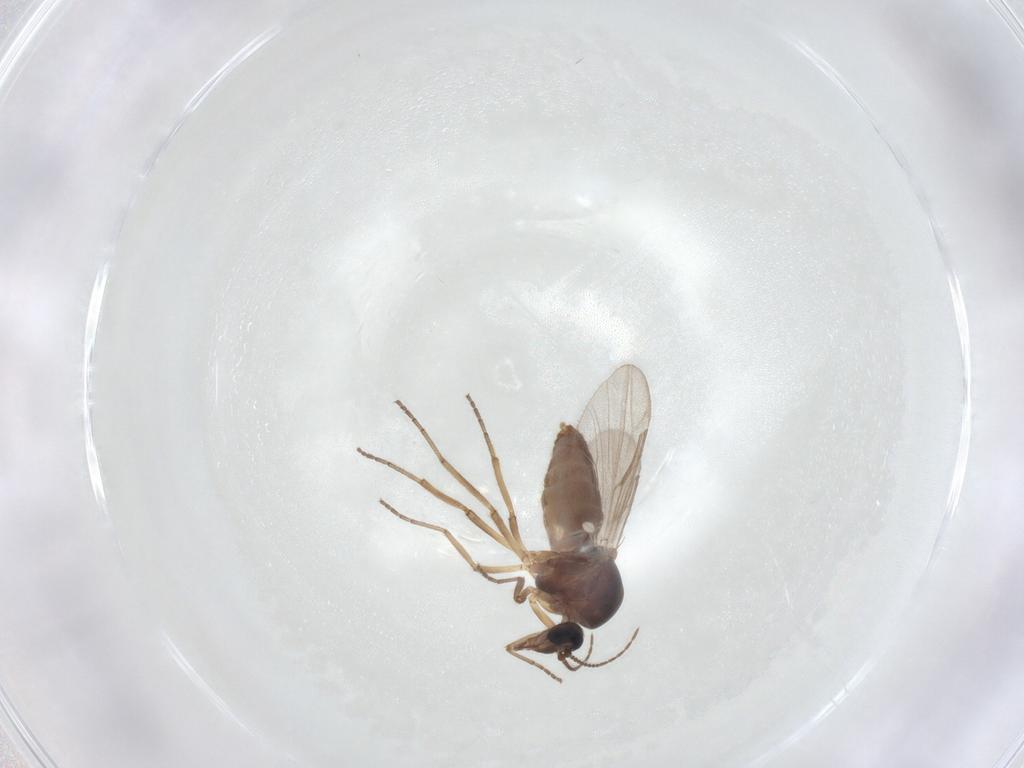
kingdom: Animalia
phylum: Arthropoda
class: Insecta
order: Diptera
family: Ceratopogonidae
